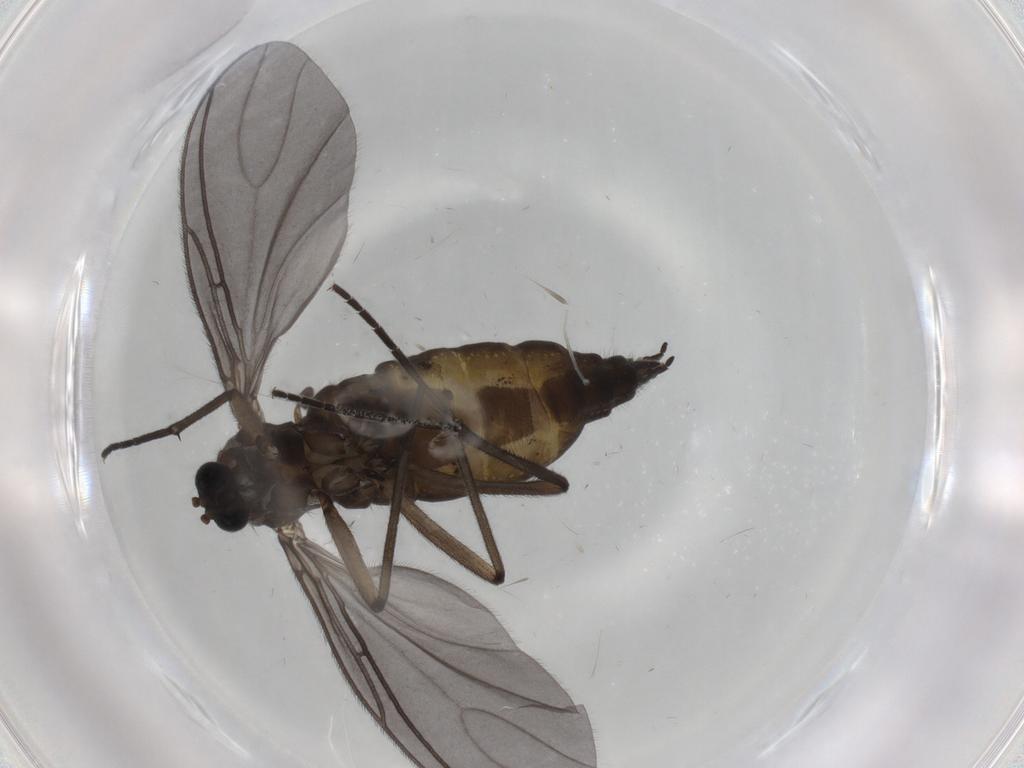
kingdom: Animalia
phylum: Arthropoda
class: Insecta
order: Diptera
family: Sciaridae
